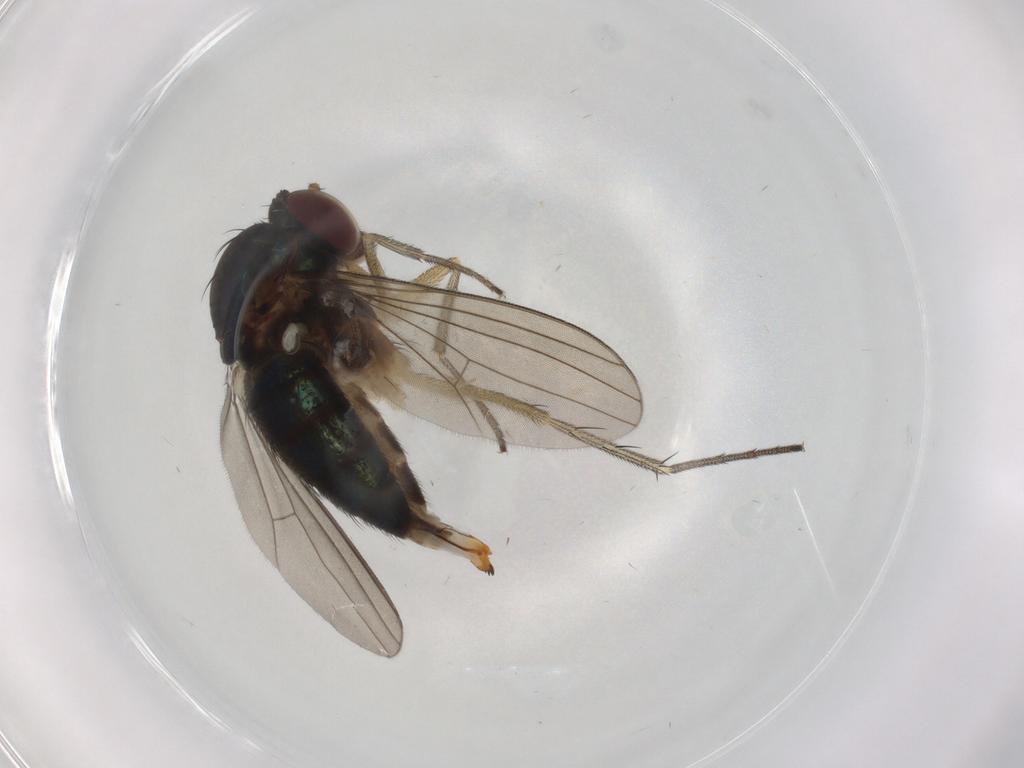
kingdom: Animalia
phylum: Arthropoda
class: Insecta
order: Diptera
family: Dolichopodidae
